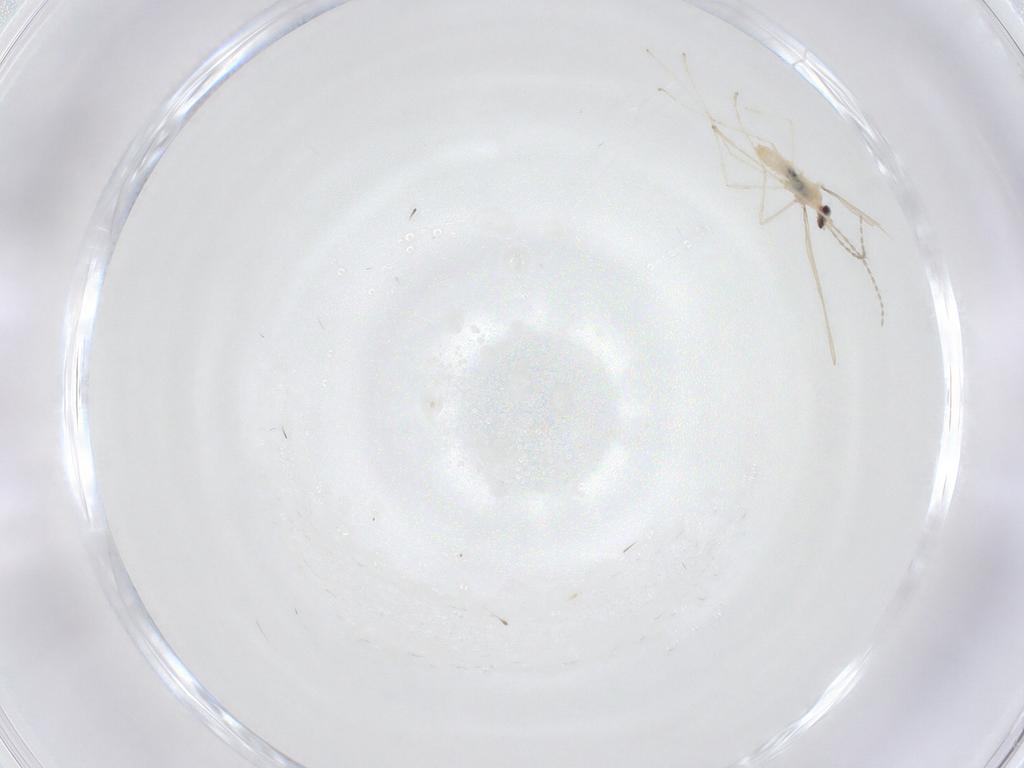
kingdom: Animalia
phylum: Arthropoda
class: Insecta
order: Diptera
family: Cecidomyiidae
